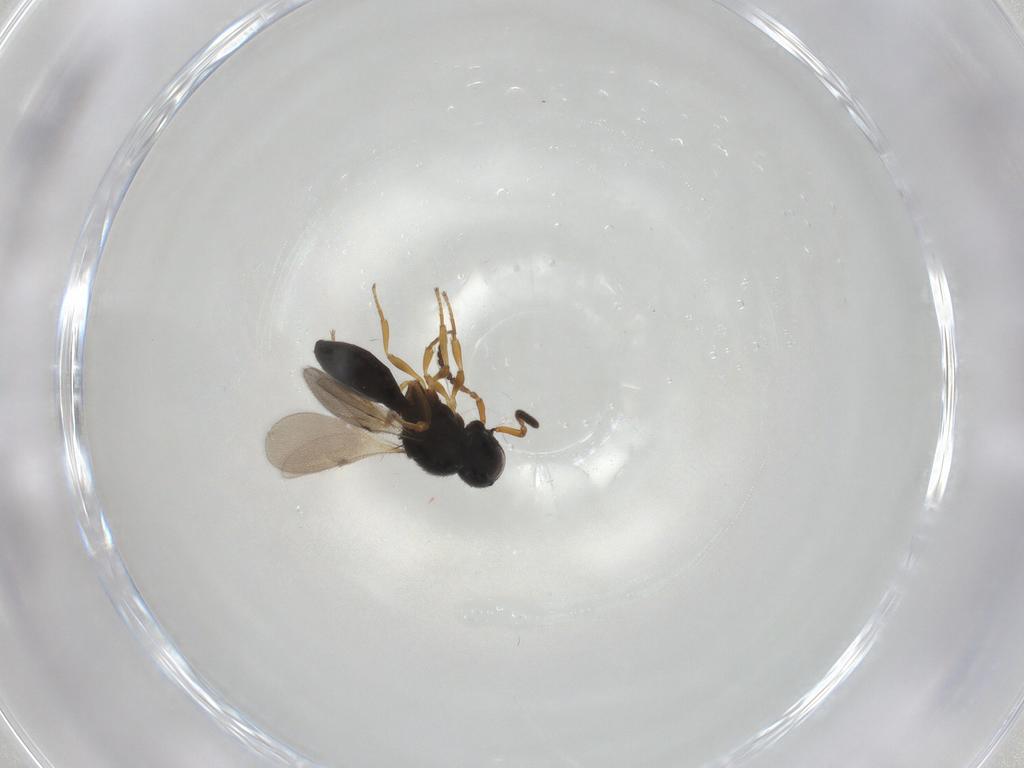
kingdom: Animalia
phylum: Arthropoda
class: Insecta
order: Hymenoptera
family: Scelionidae
